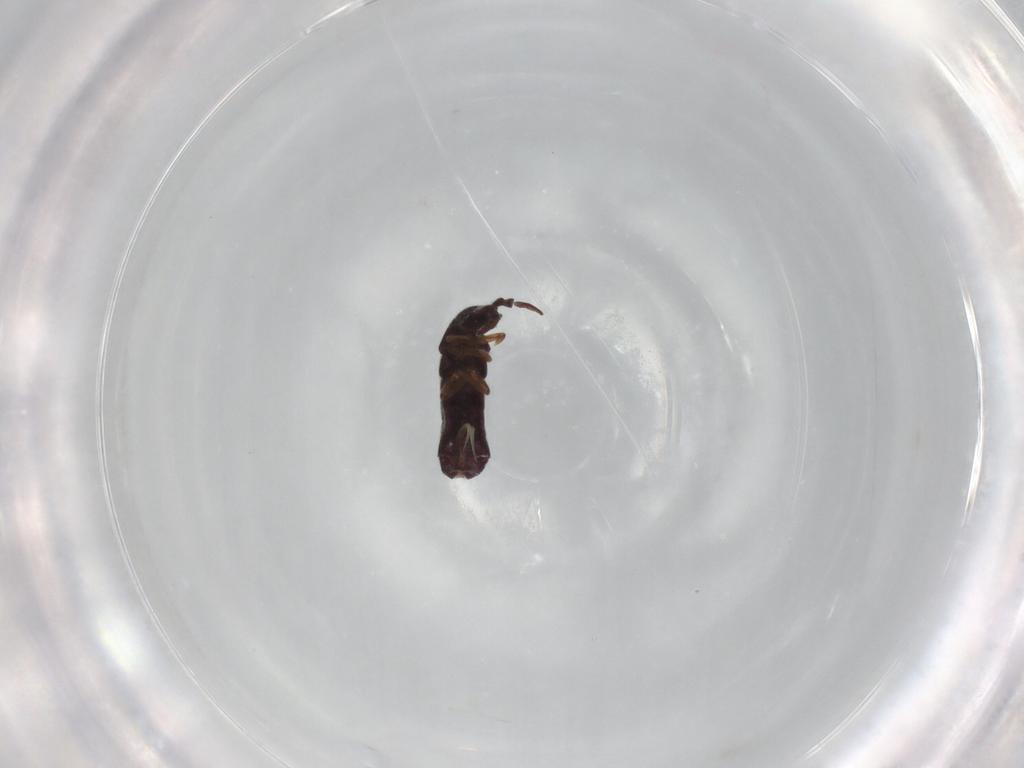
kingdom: Animalia
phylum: Arthropoda
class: Collembola
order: Entomobryomorpha
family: Isotomidae
